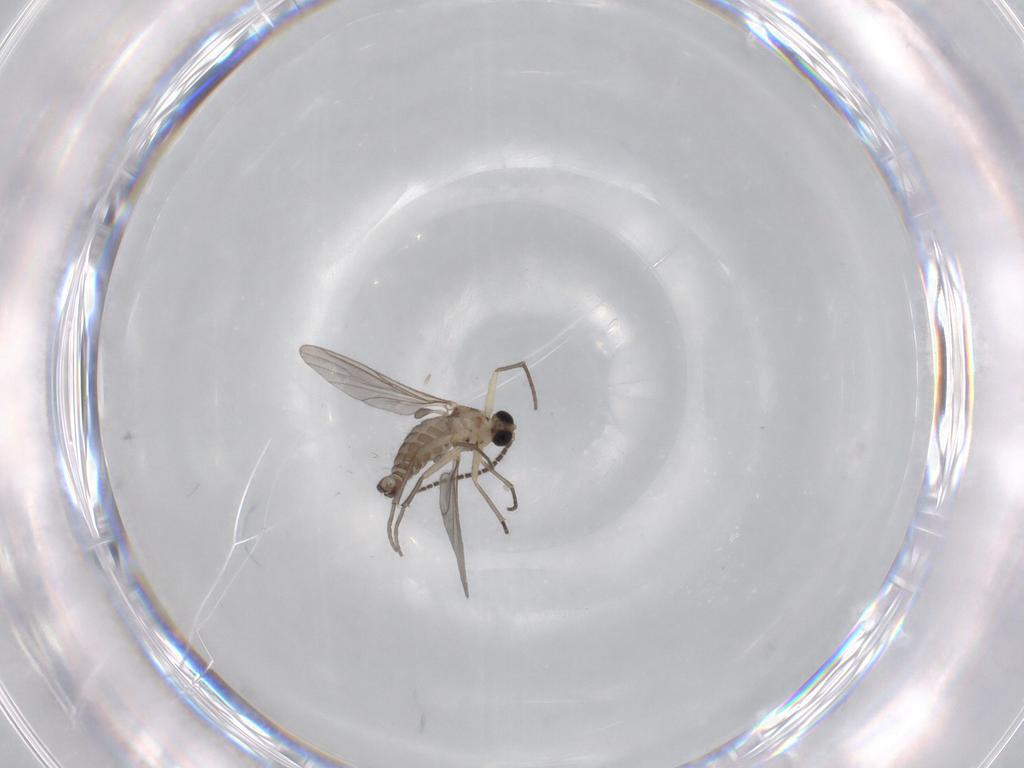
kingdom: Animalia
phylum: Arthropoda
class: Insecta
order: Diptera
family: Sciaridae
